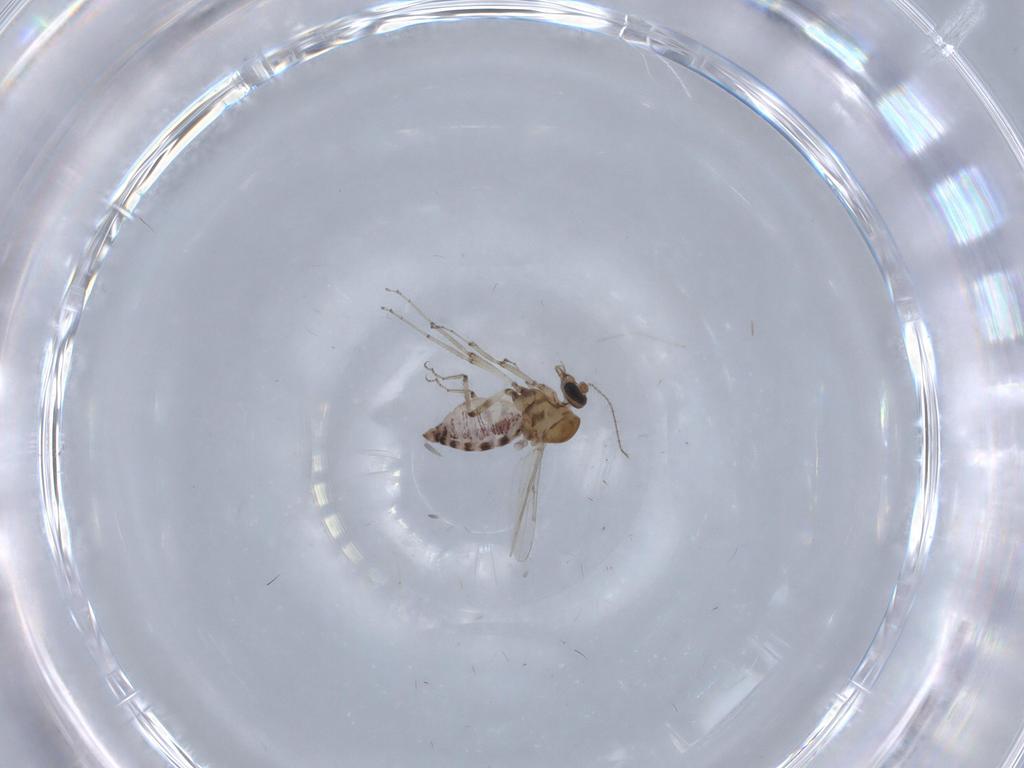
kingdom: Animalia
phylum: Arthropoda
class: Insecta
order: Diptera
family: Ceratopogonidae
